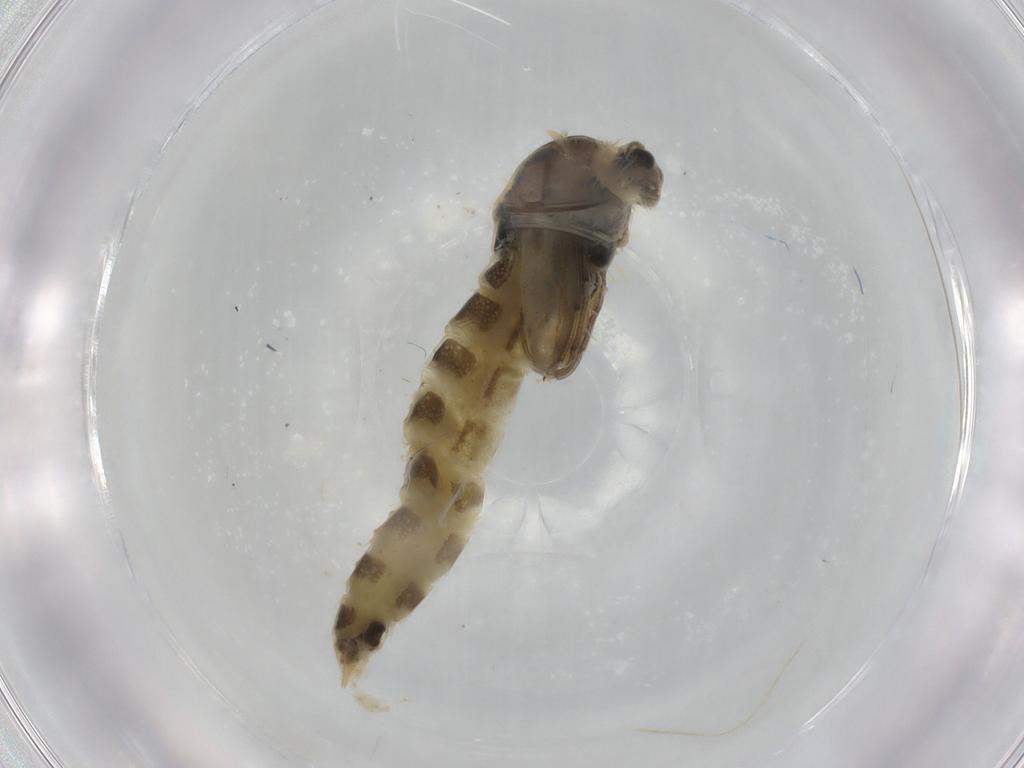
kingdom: Animalia
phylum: Arthropoda
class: Insecta
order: Diptera
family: Chironomidae
